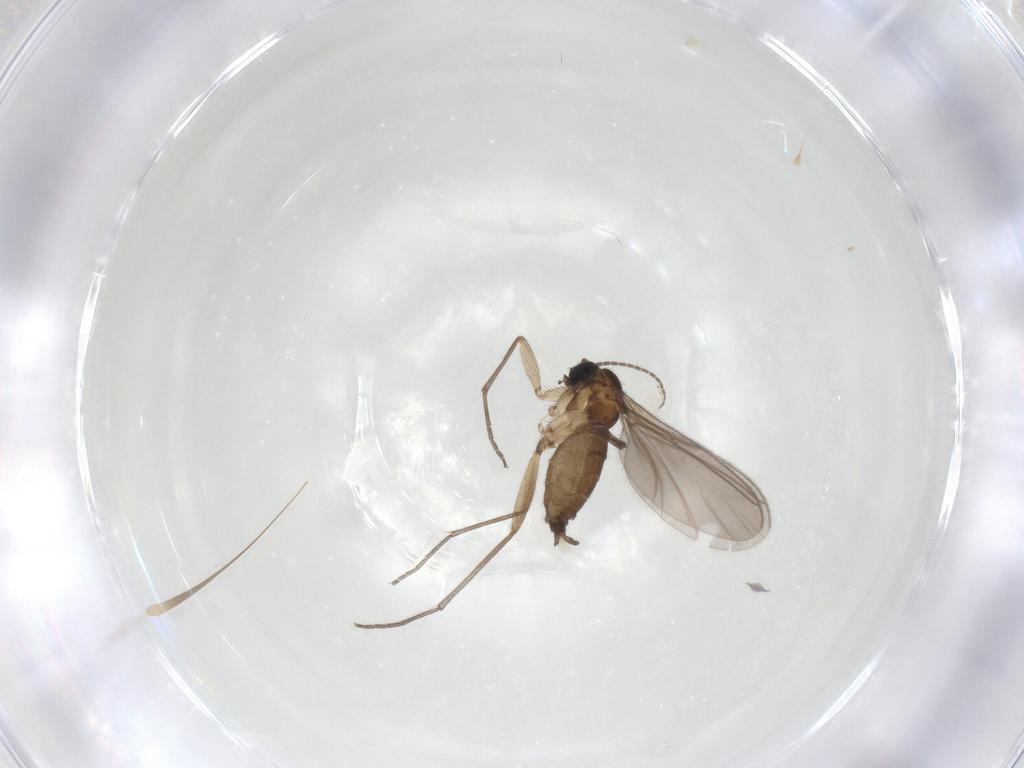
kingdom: Animalia
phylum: Arthropoda
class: Insecta
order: Diptera
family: Sciaridae
